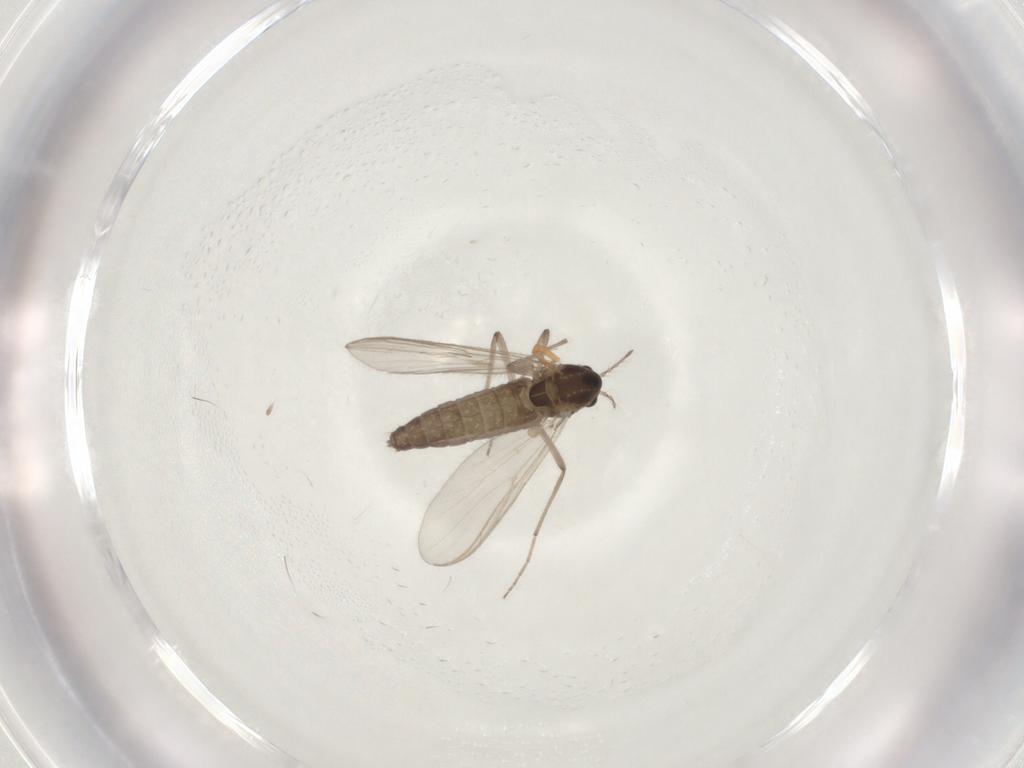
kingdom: Animalia
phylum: Arthropoda
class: Insecta
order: Diptera
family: Chironomidae
